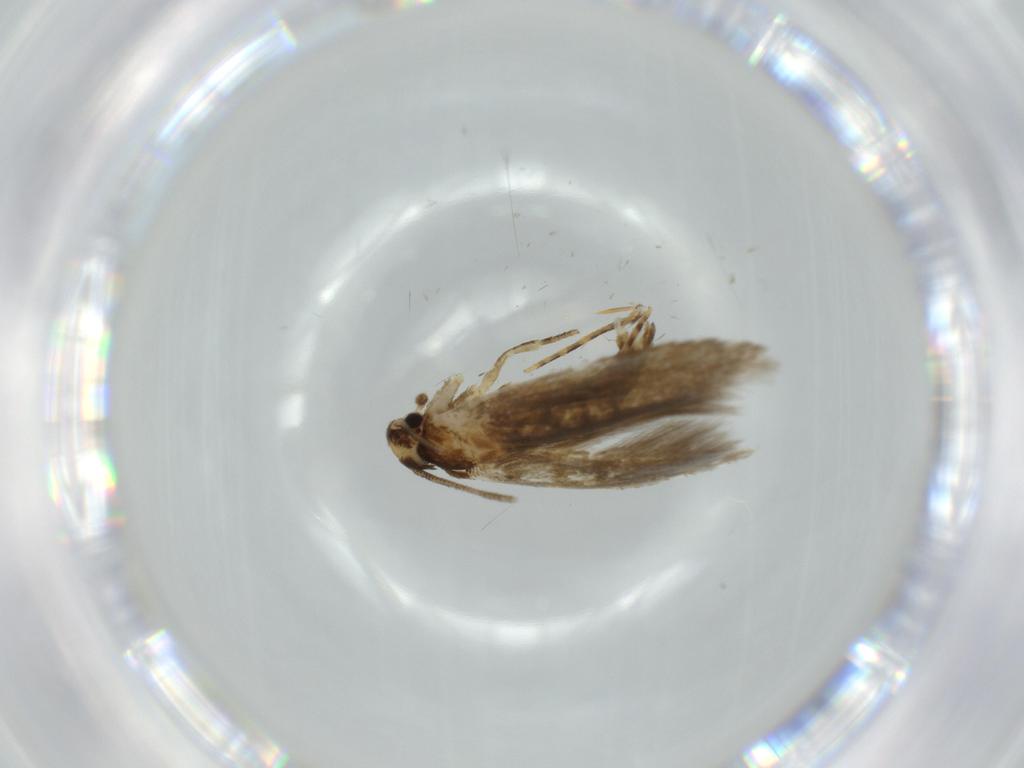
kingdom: Animalia
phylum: Arthropoda
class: Insecta
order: Lepidoptera
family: Tineidae
